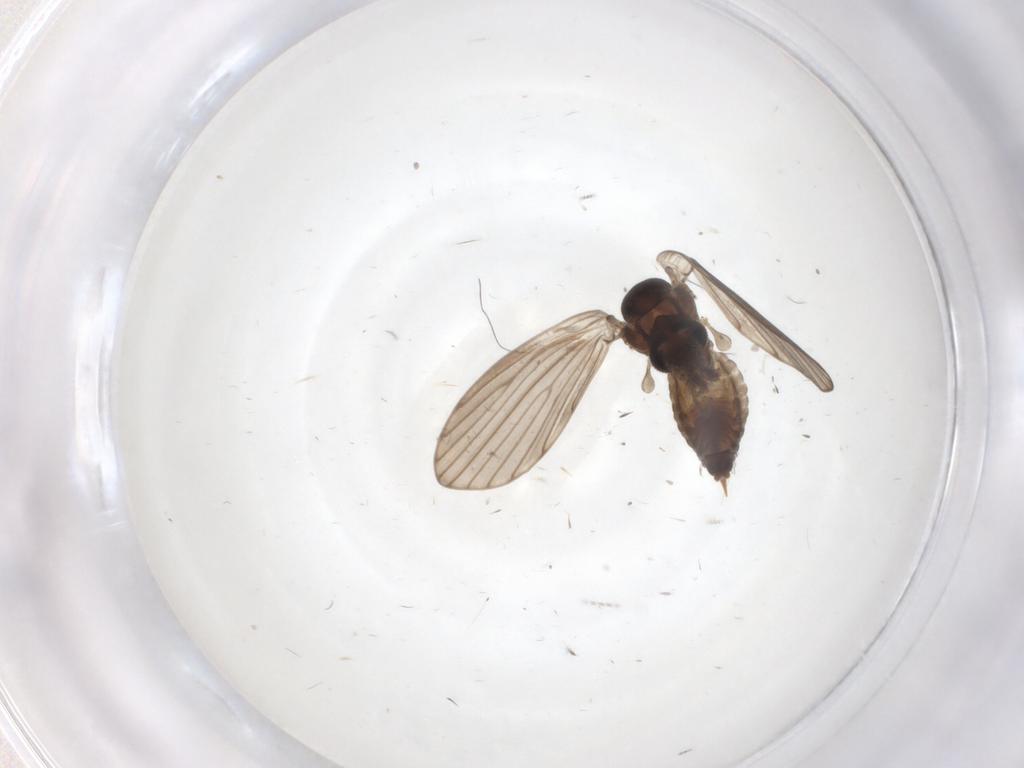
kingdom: Animalia
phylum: Arthropoda
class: Insecta
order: Diptera
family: Psychodidae
